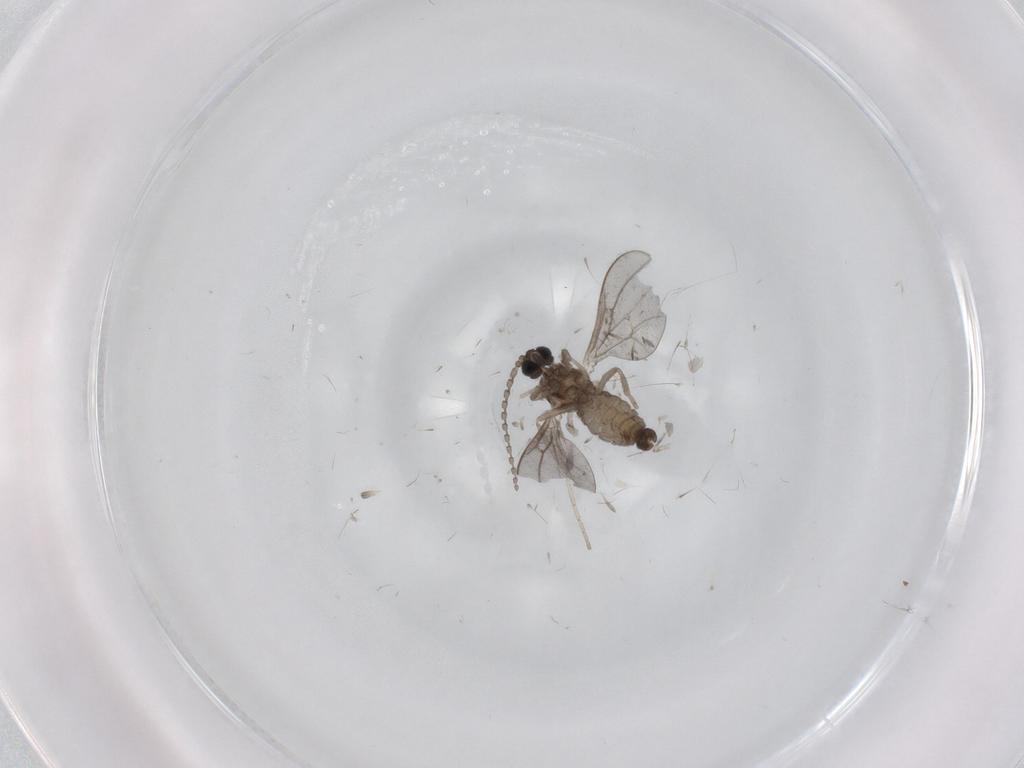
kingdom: Animalia
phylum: Arthropoda
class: Insecta
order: Diptera
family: Cecidomyiidae
